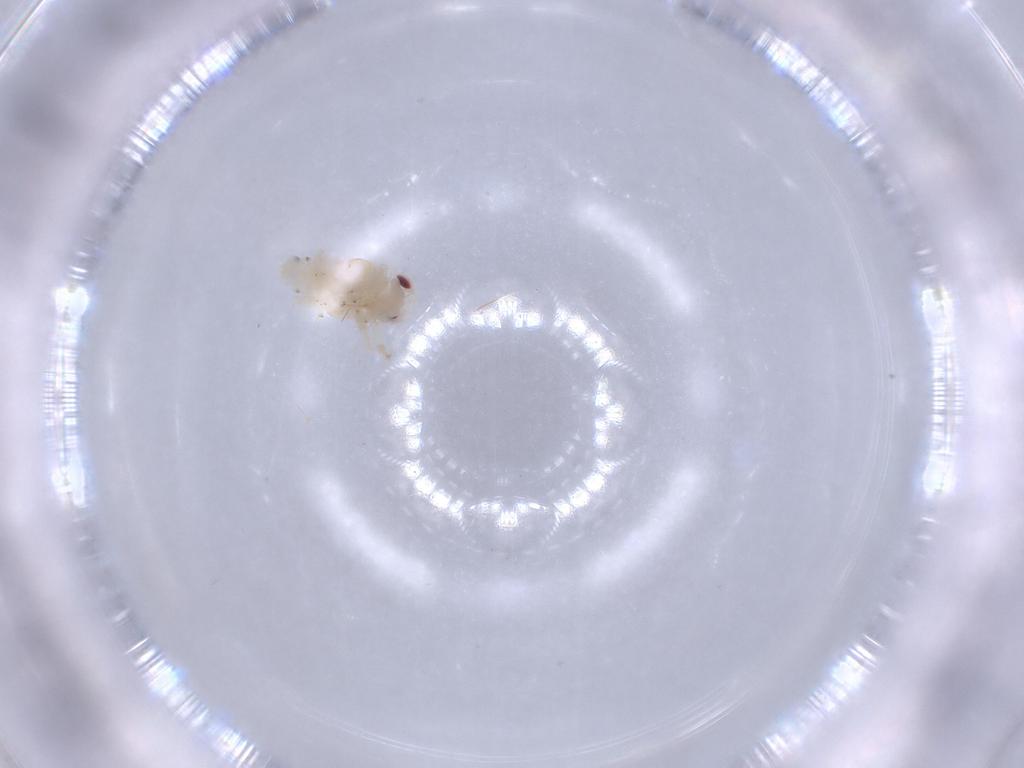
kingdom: Animalia
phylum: Arthropoda
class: Insecta
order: Hemiptera
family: Nogodinidae
